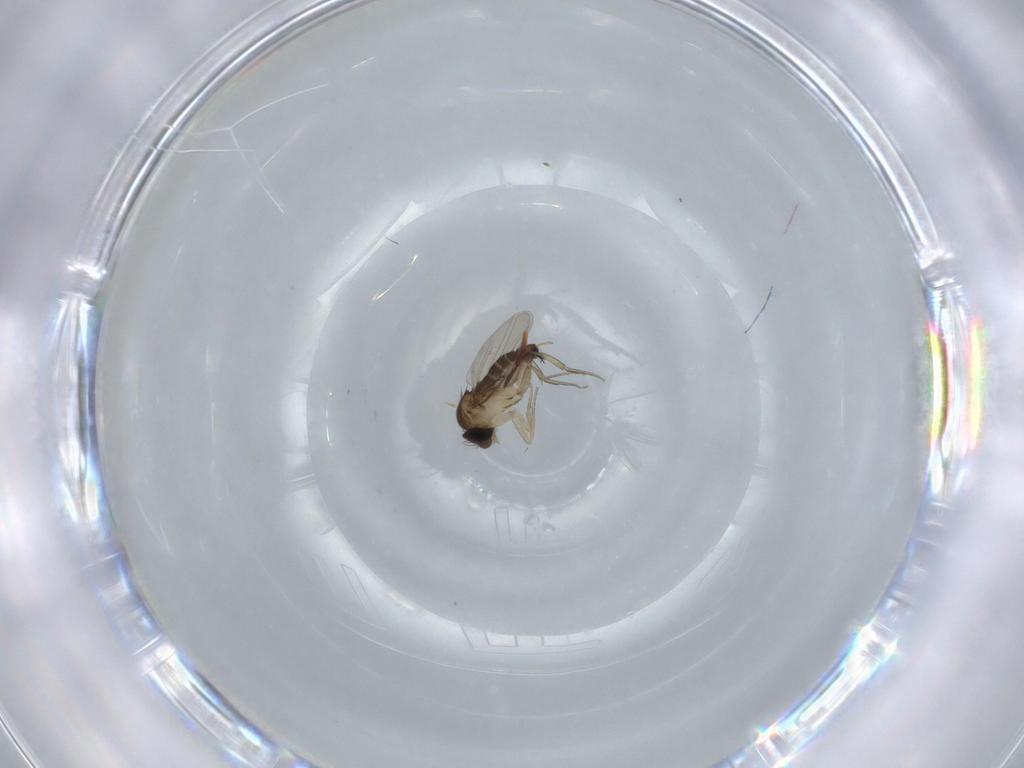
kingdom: Animalia
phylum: Arthropoda
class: Insecta
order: Diptera
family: Phoridae
